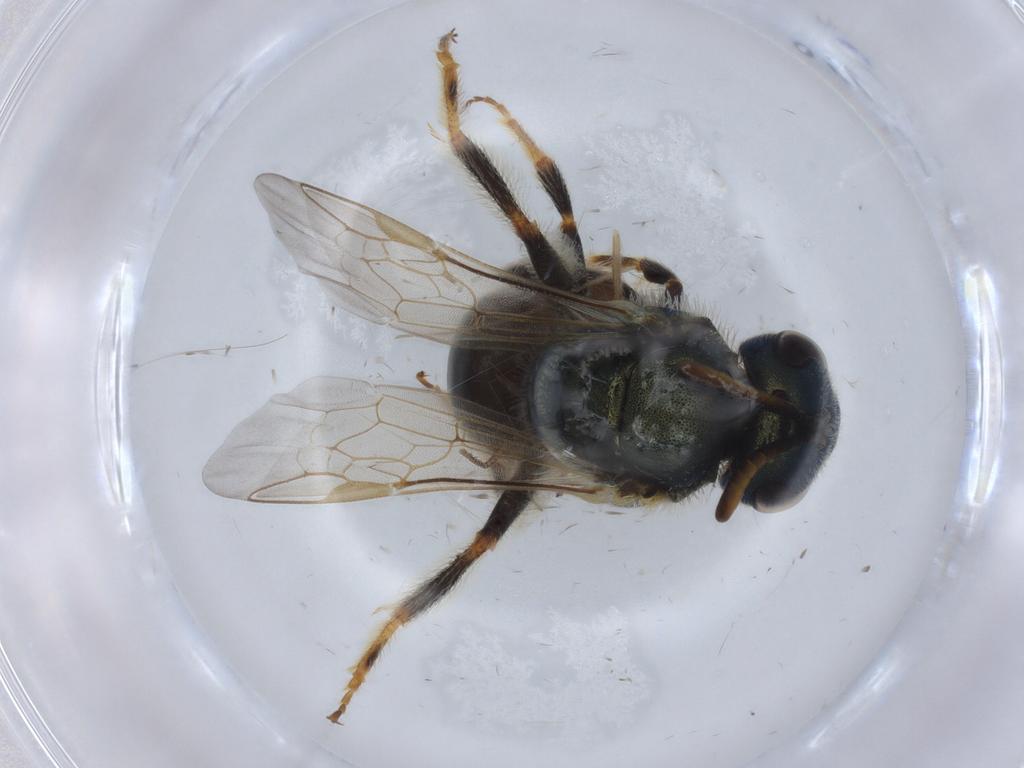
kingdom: Animalia
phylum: Arthropoda
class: Insecta
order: Hymenoptera
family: Halictidae
